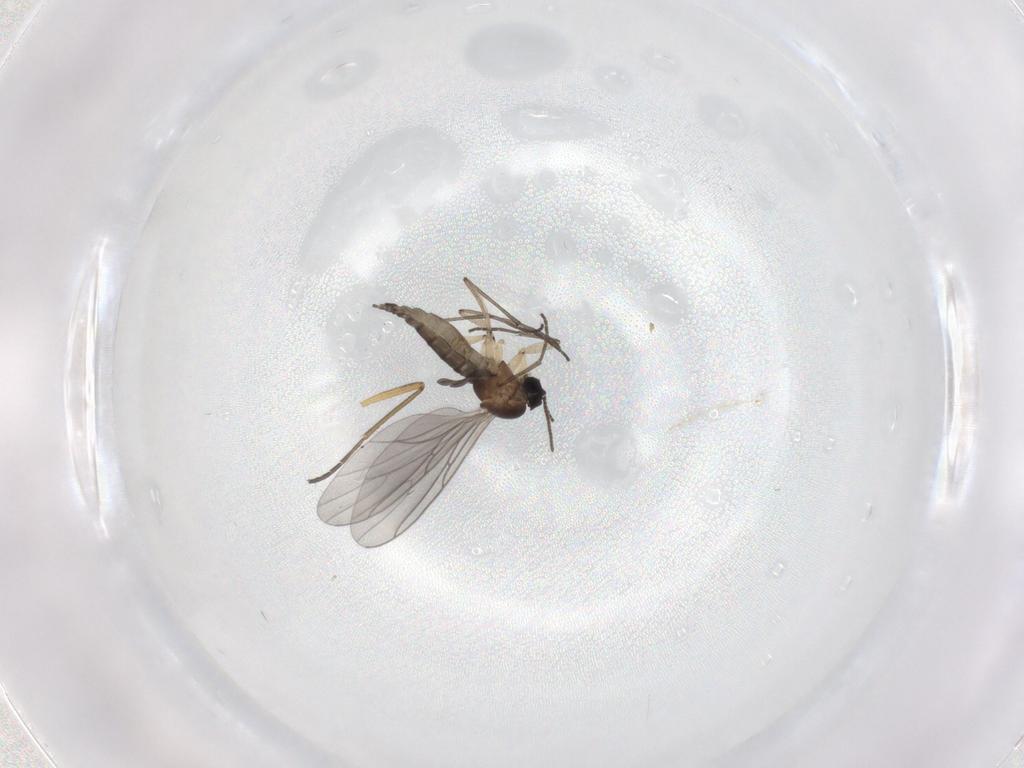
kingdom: Animalia
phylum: Arthropoda
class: Insecta
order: Diptera
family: Sciaridae
